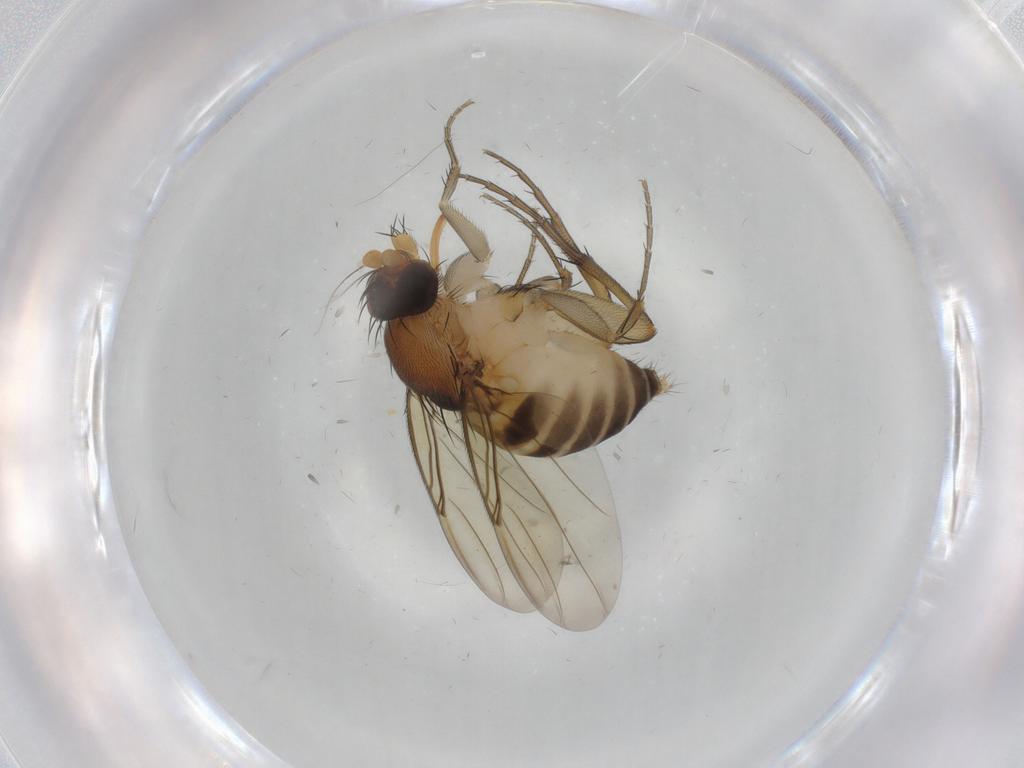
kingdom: Animalia
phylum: Arthropoda
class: Insecta
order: Diptera
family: Phoridae
